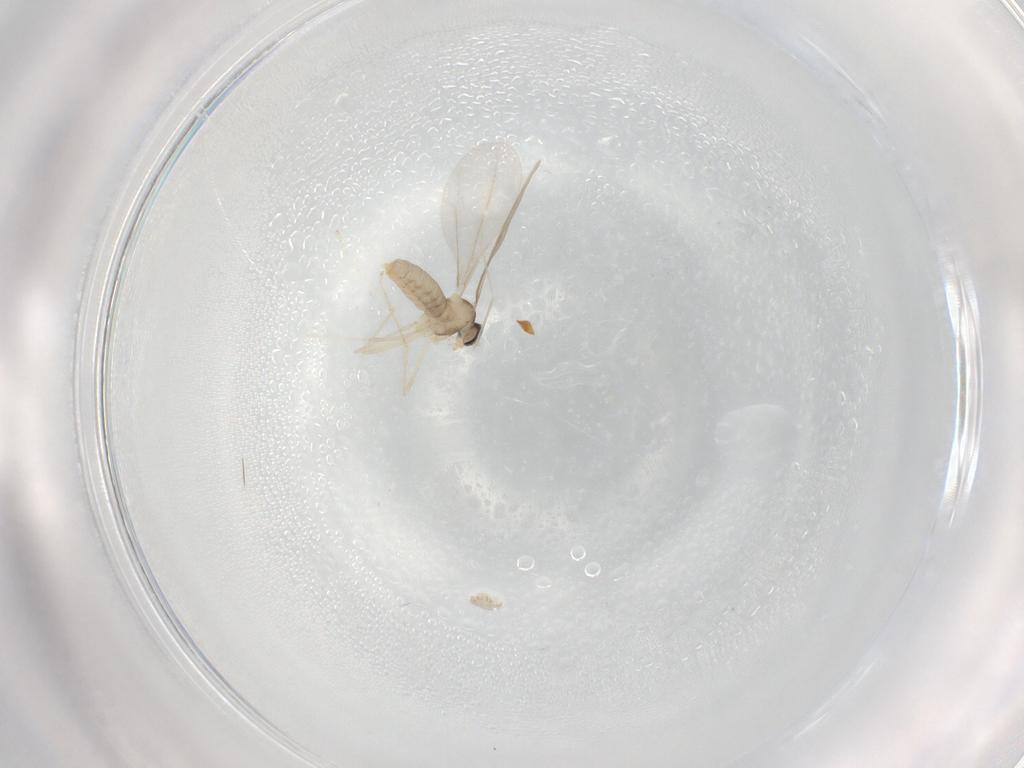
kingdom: Animalia
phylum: Arthropoda
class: Insecta
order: Diptera
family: Cecidomyiidae
